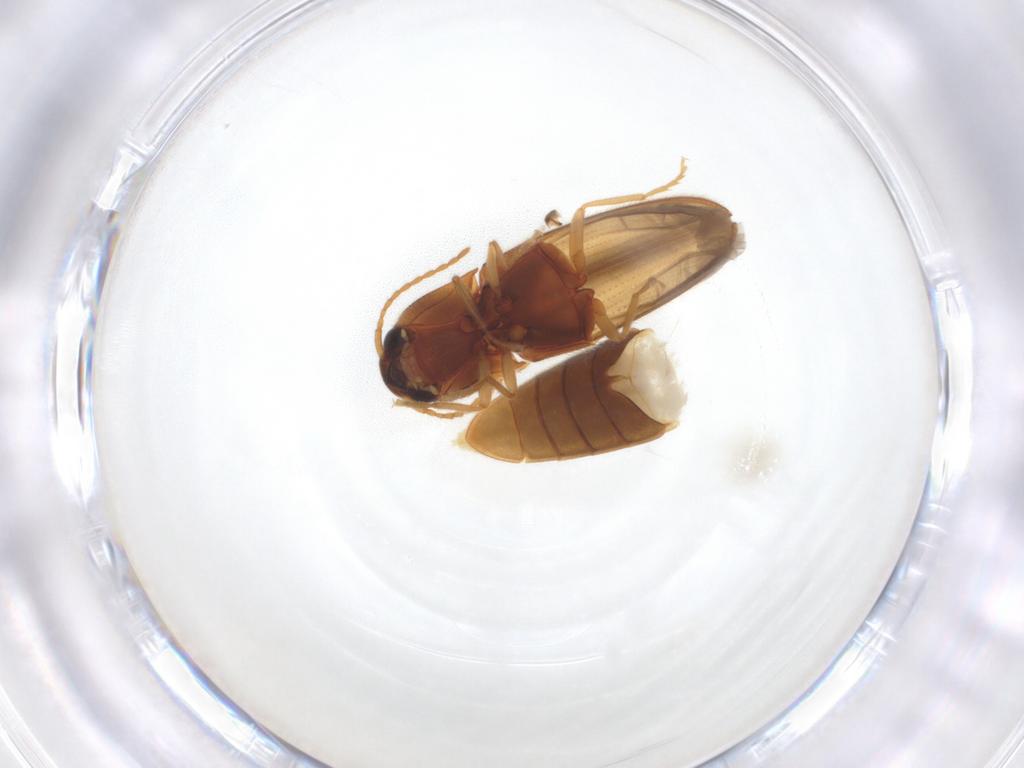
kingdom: Animalia
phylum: Arthropoda
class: Insecta
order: Coleoptera
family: Elateridae
